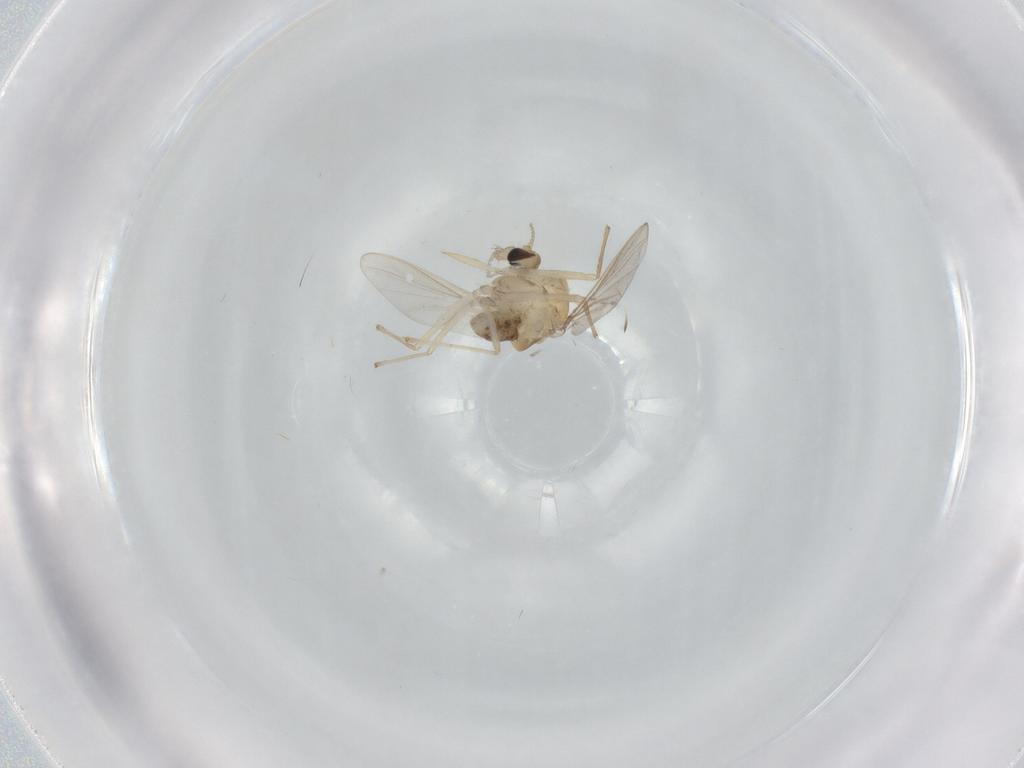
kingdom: Animalia
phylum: Arthropoda
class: Insecta
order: Diptera
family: Chironomidae
